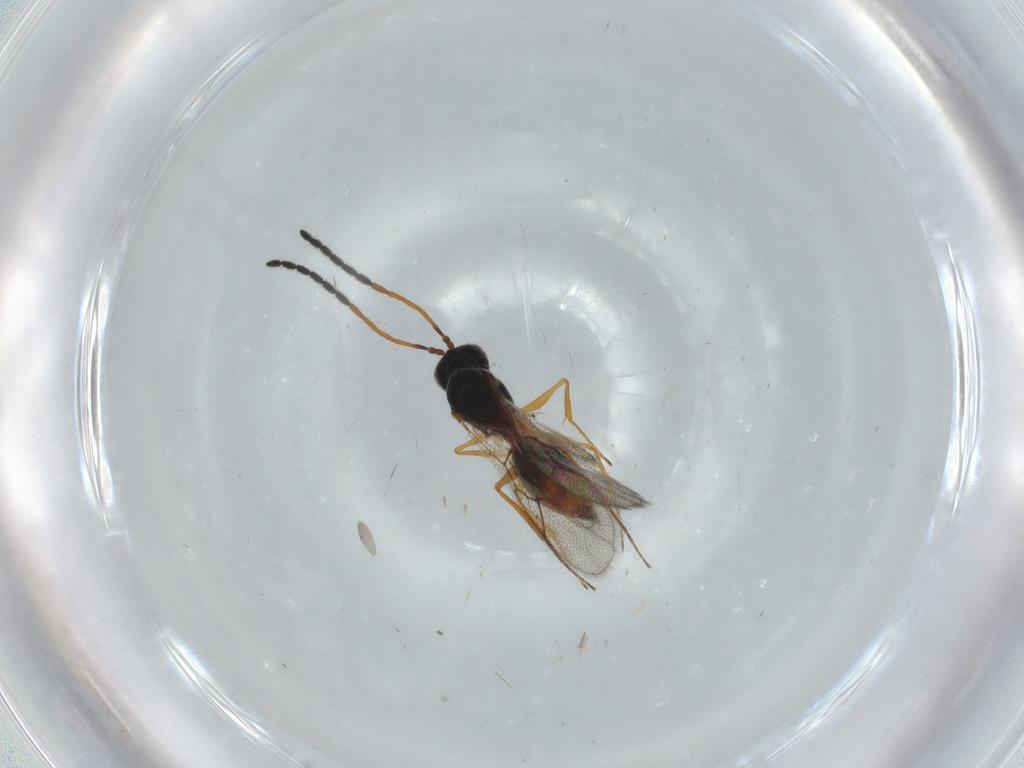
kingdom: Animalia
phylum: Arthropoda
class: Insecta
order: Hymenoptera
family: Figitidae
